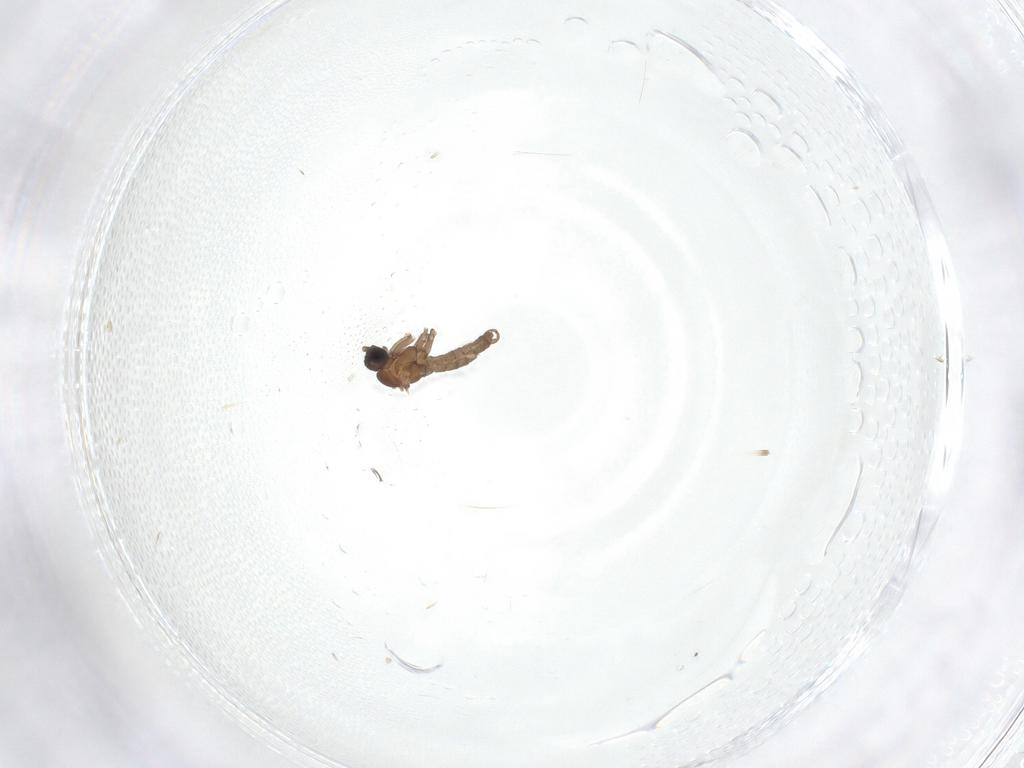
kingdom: Animalia
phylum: Arthropoda
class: Insecta
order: Diptera
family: Sciaridae
